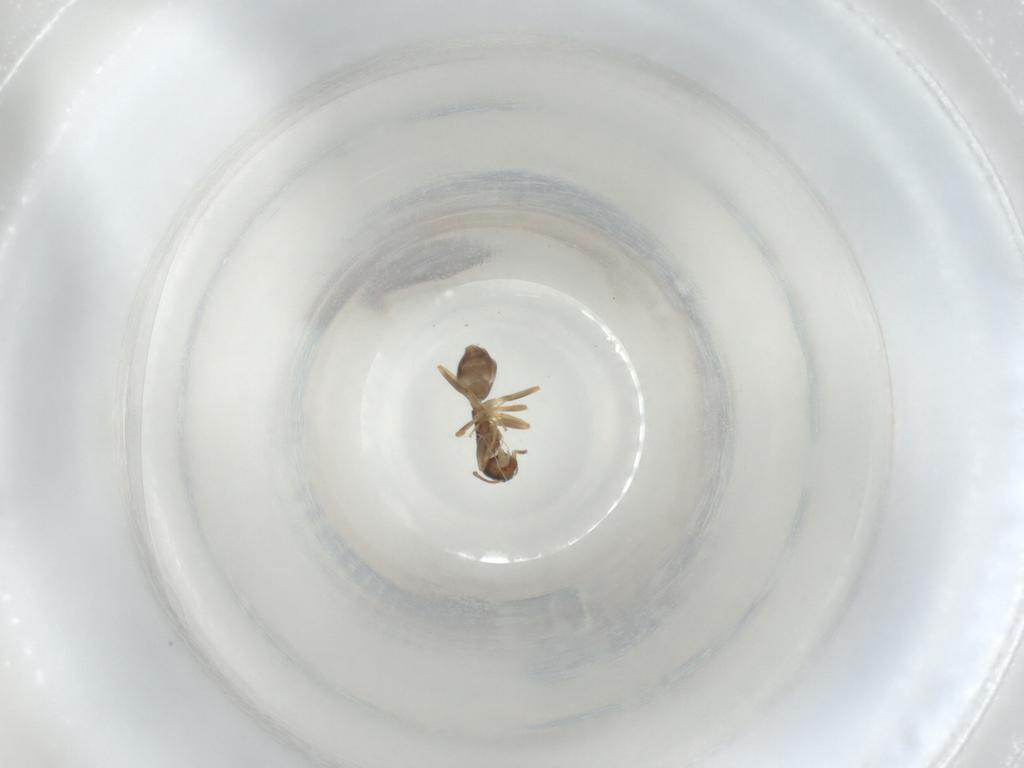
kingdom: Animalia
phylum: Arthropoda
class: Insecta
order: Hymenoptera
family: Formicidae
